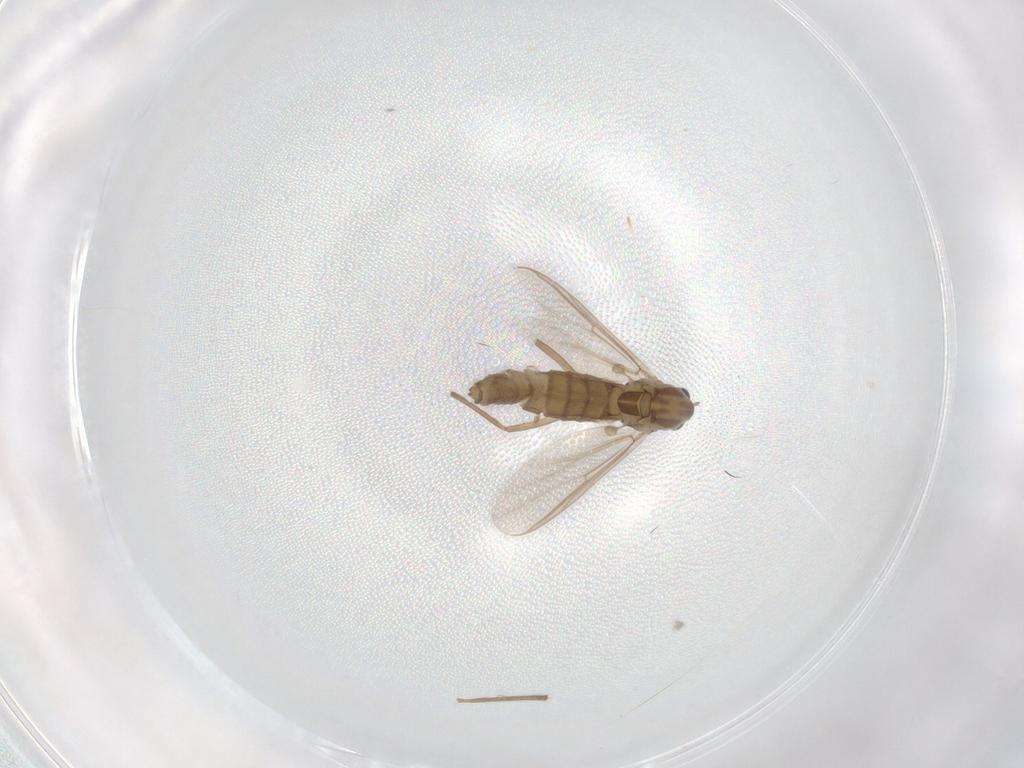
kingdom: Animalia
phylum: Arthropoda
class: Insecta
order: Diptera
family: Chironomidae
